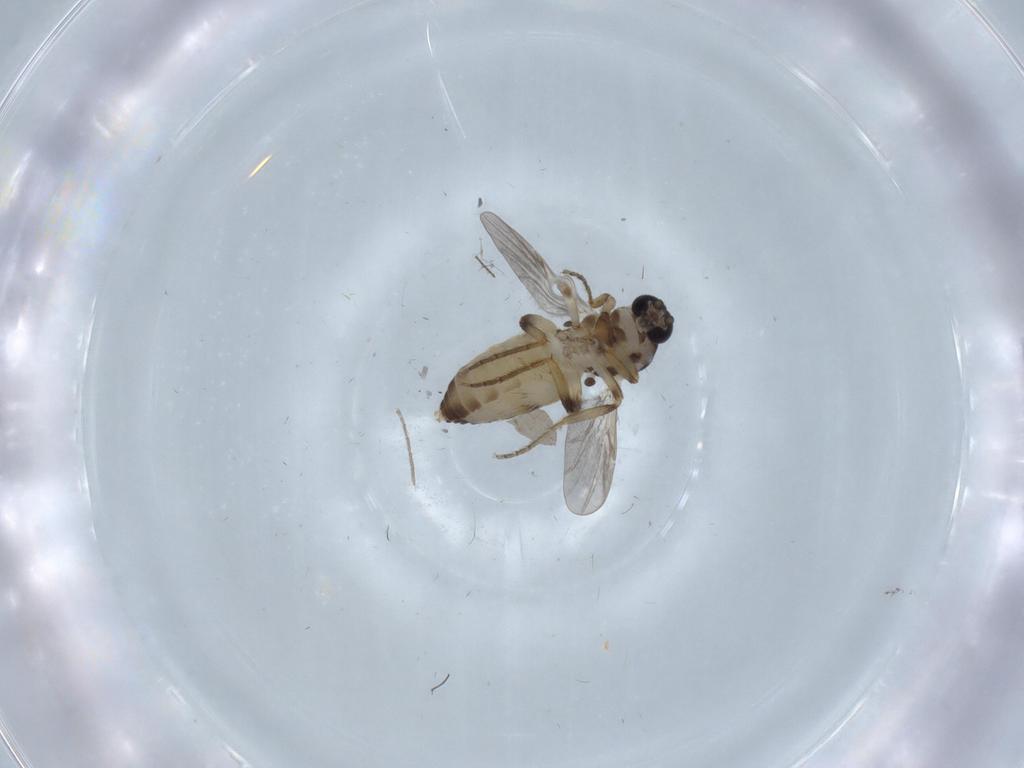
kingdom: Animalia
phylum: Arthropoda
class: Insecta
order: Diptera
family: Ceratopogonidae
